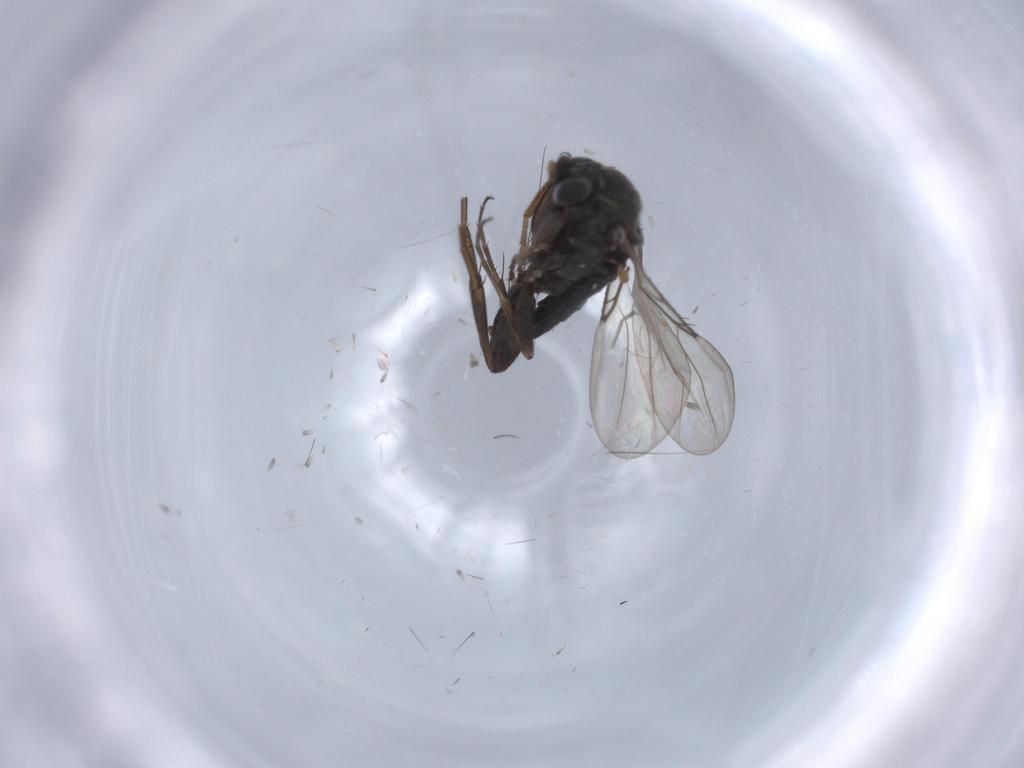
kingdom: Animalia
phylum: Arthropoda
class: Insecta
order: Diptera
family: Phoridae
